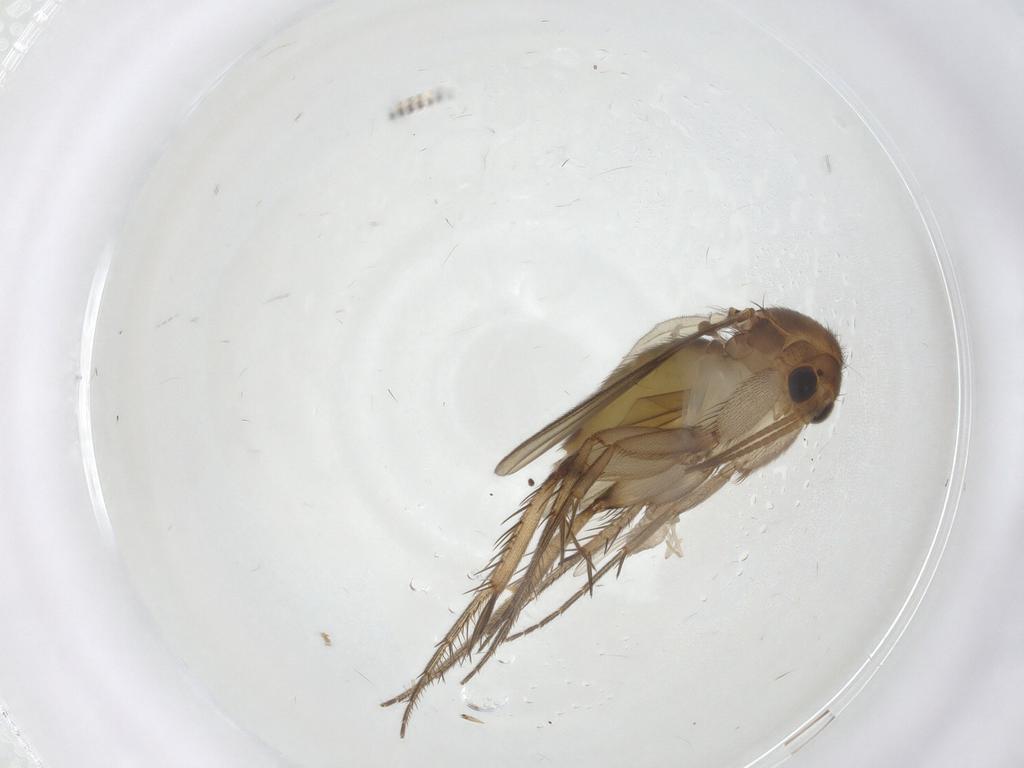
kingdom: Animalia
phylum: Arthropoda
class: Insecta
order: Diptera
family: Cecidomyiidae
